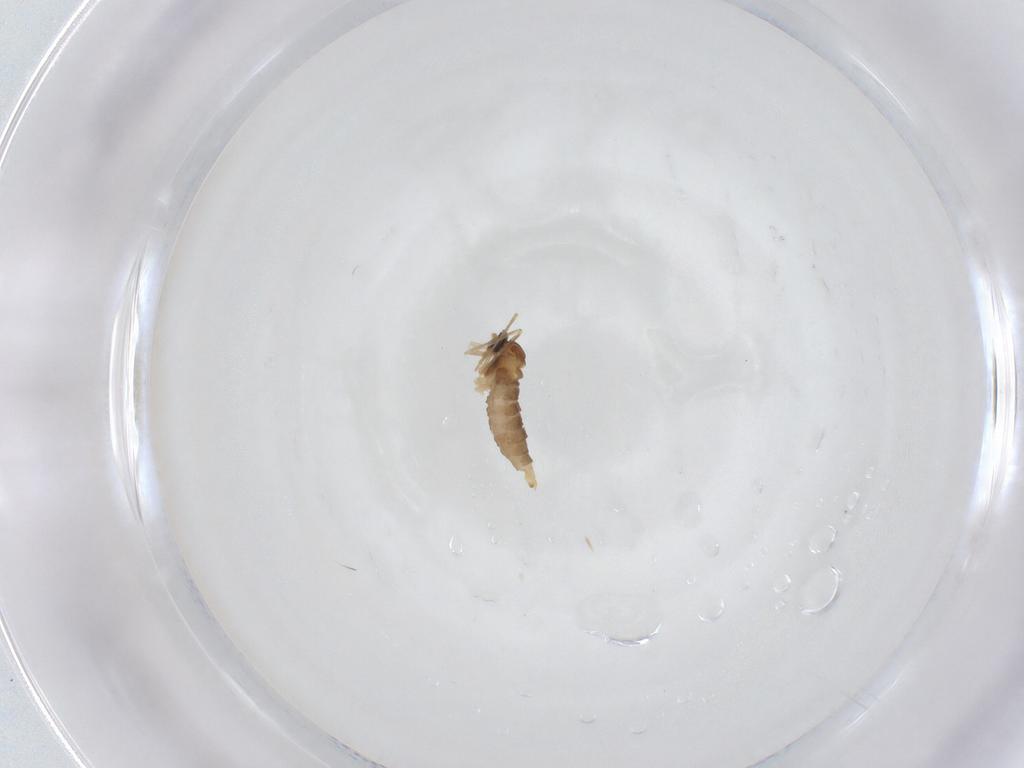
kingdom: Animalia
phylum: Arthropoda
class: Insecta
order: Diptera
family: Cecidomyiidae
